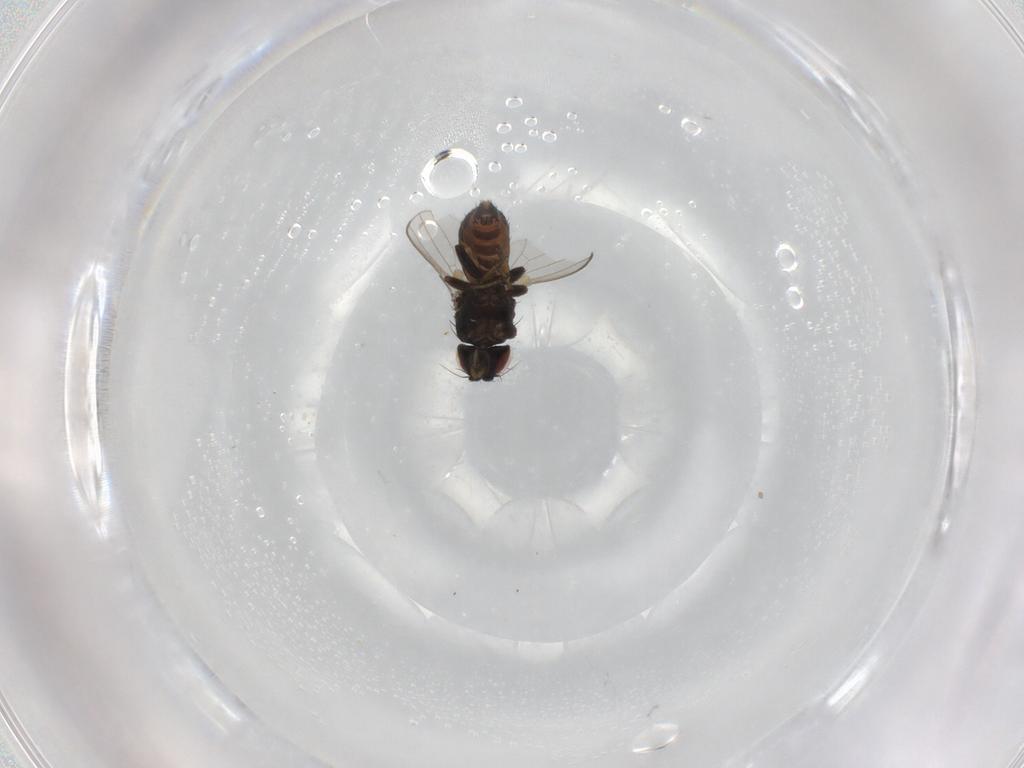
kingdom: Animalia
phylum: Arthropoda
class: Insecta
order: Diptera
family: Milichiidae
